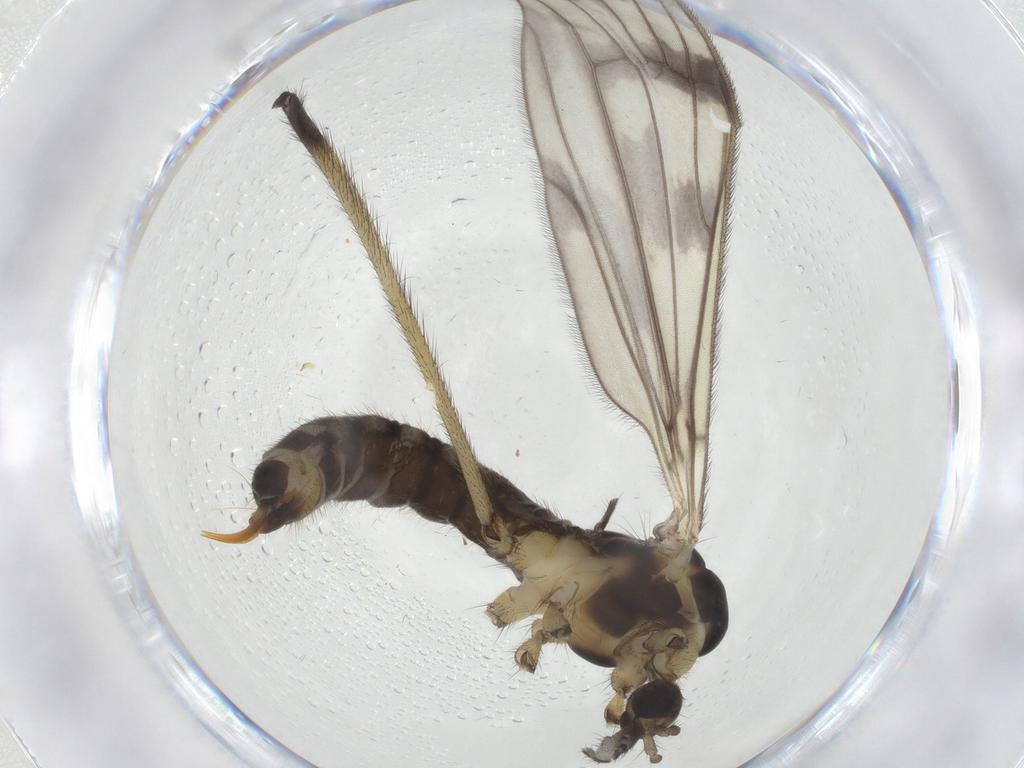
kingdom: Animalia
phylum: Arthropoda
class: Insecta
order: Diptera
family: Limoniidae
